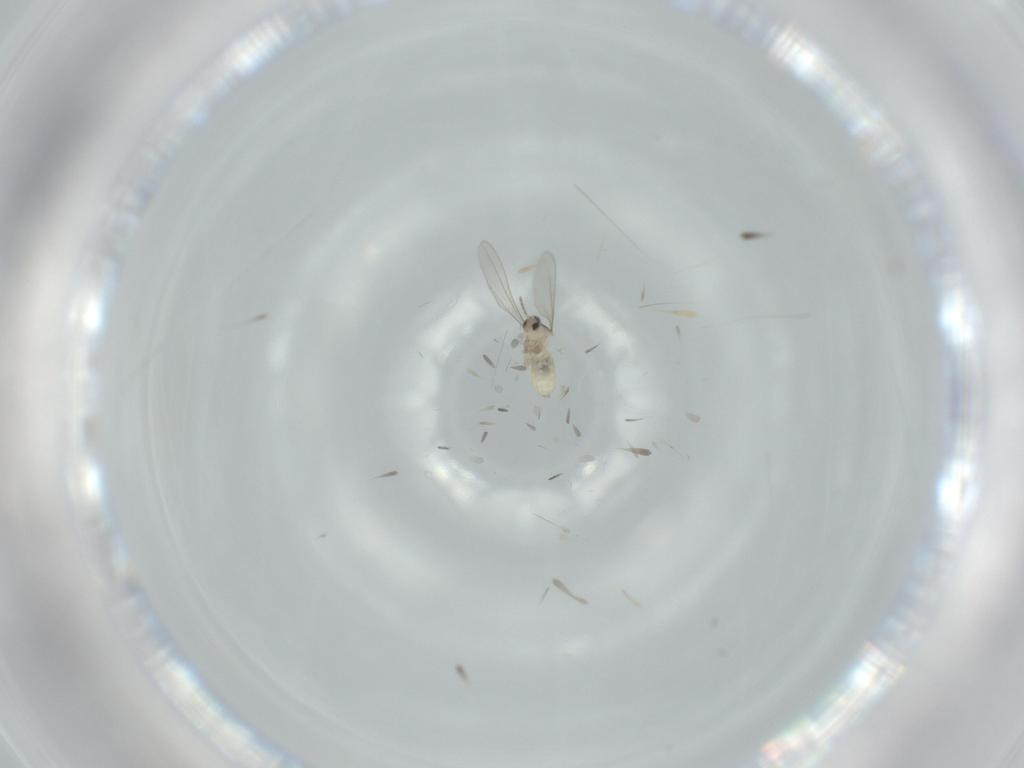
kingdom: Animalia
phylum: Arthropoda
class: Insecta
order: Diptera
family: Cecidomyiidae
